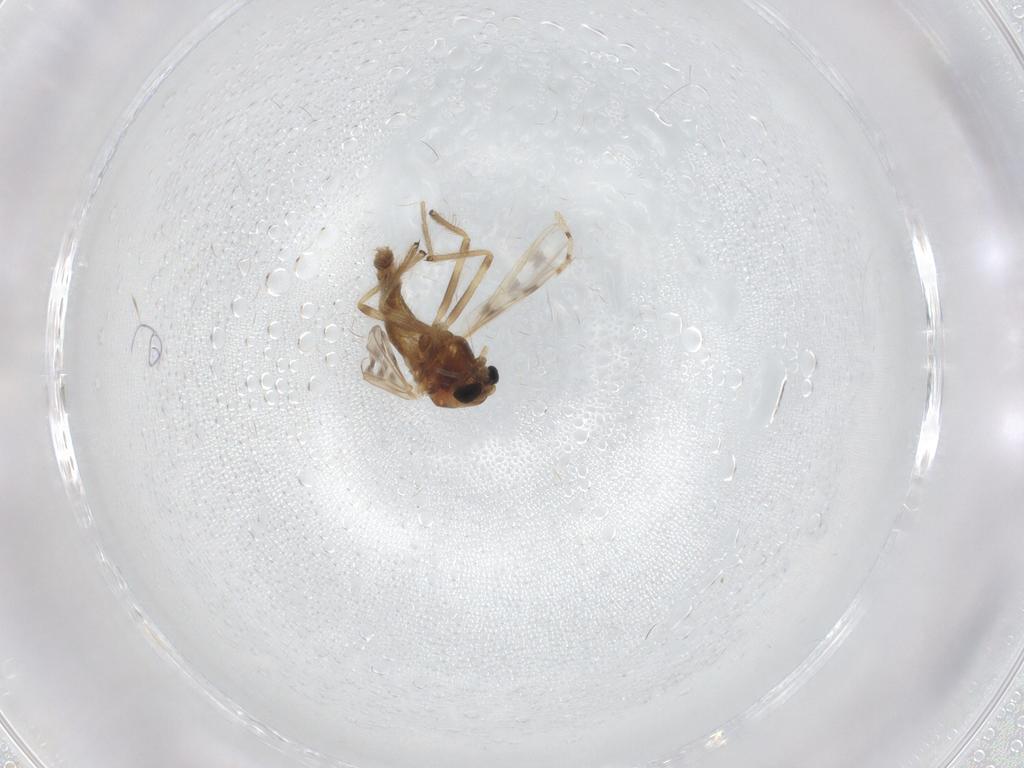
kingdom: Animalia
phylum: Arthropoda
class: Insecta
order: Diptera
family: Chironomidae
